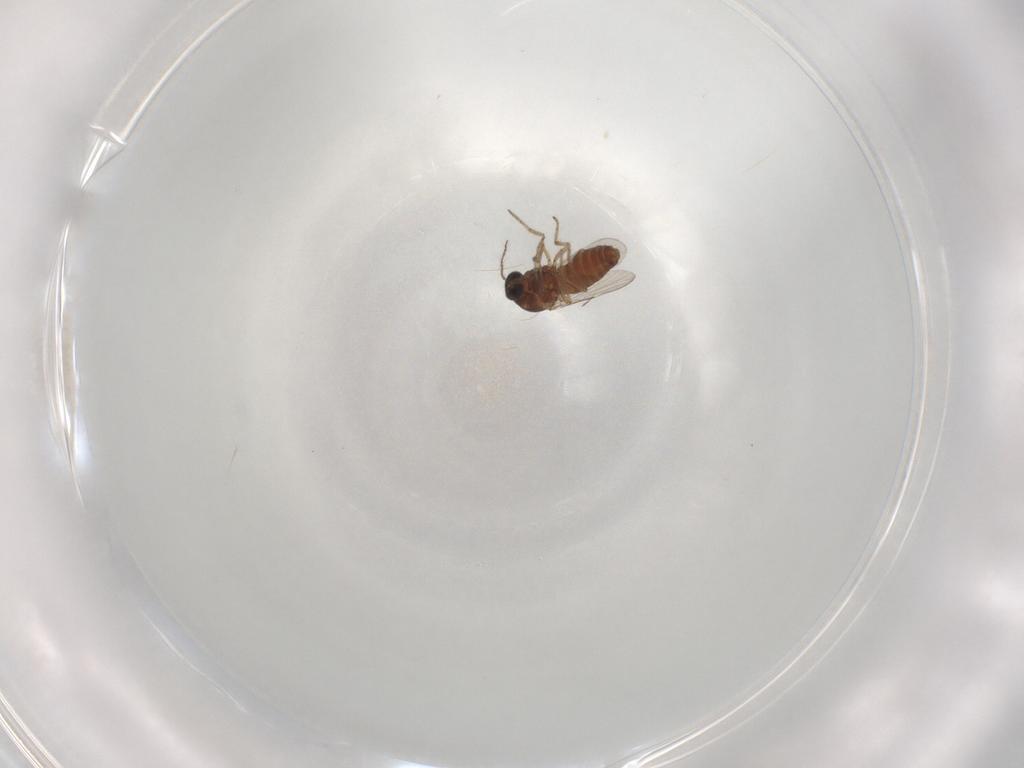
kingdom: Animalia
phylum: Arthropoda
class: Insecta
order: Diptera
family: Ceratopogonidae
